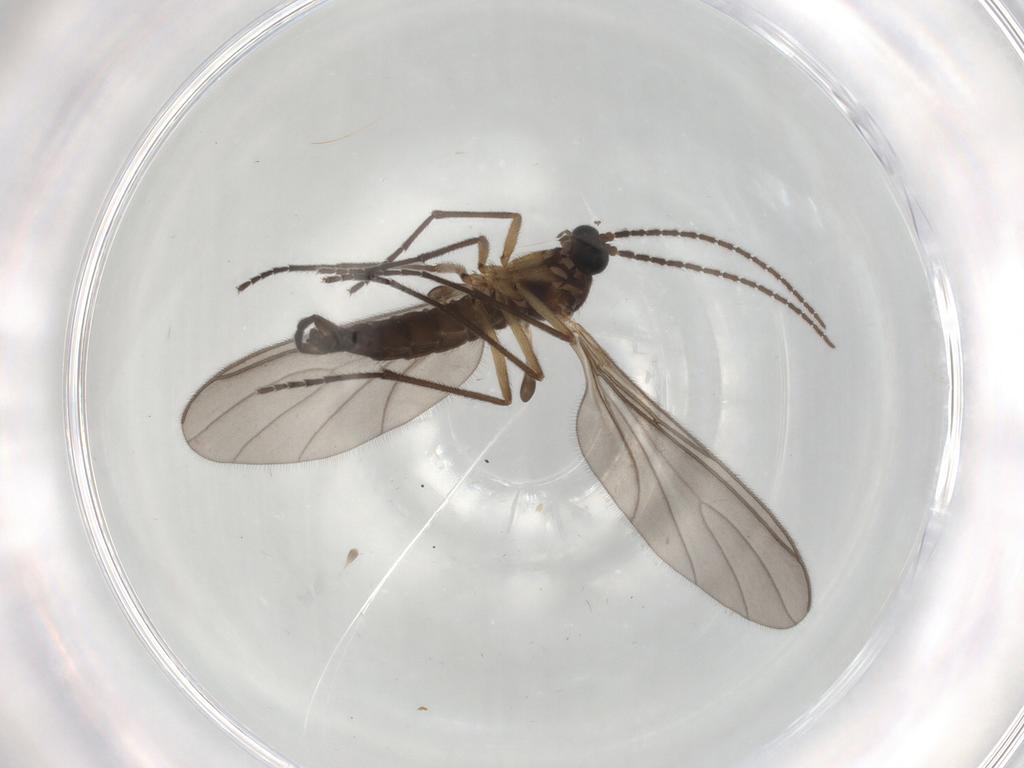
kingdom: Animalia
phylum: Arthropoda
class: Insecta
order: Diptera
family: Sciaridae
